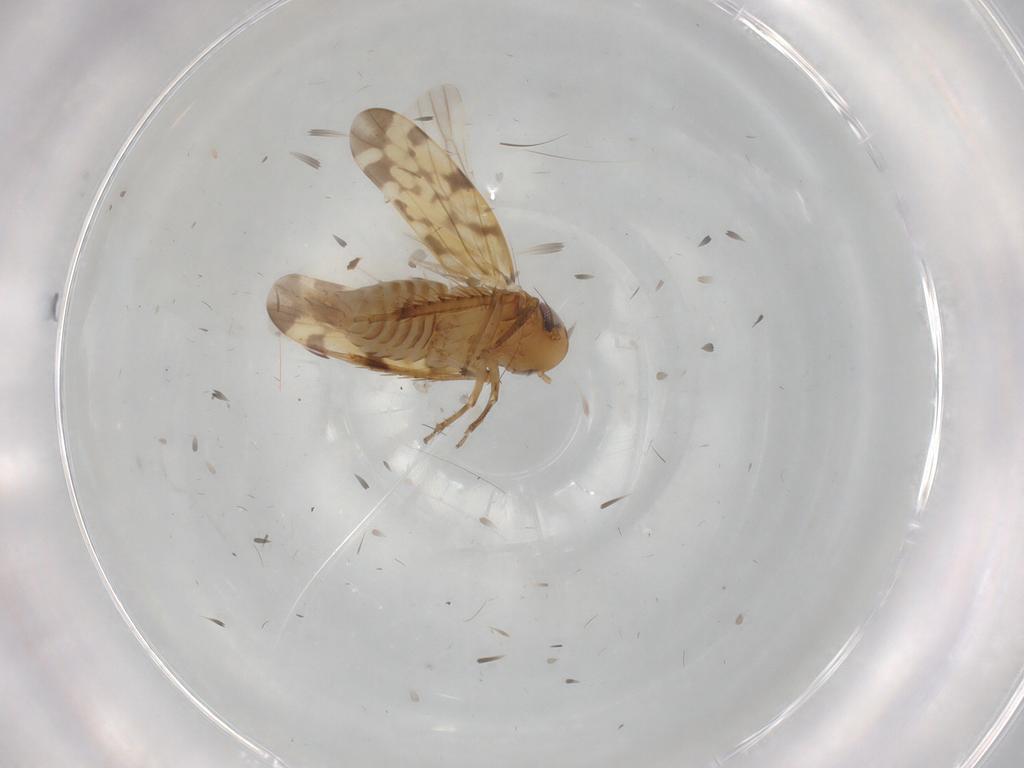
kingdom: Animalia
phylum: Arthropoda
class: Insecta
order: Hemiptera
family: Cicadellidae
